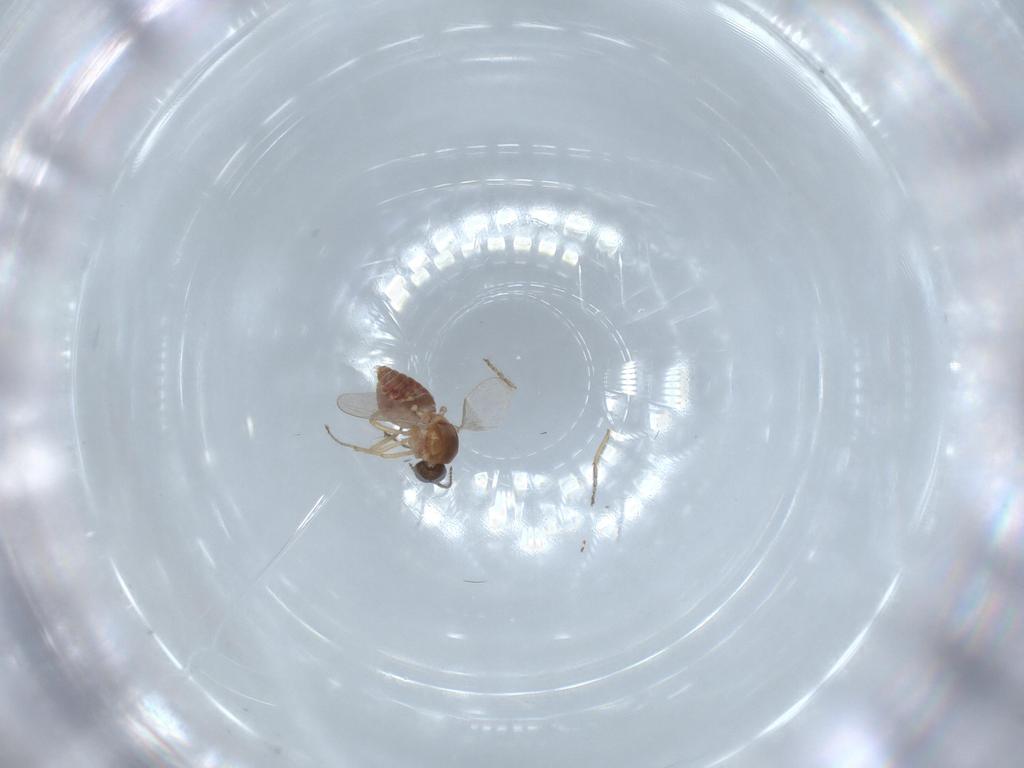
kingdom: Animalia
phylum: Arthropoda
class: Insecta
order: Diptera
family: Ceratopogonidae
